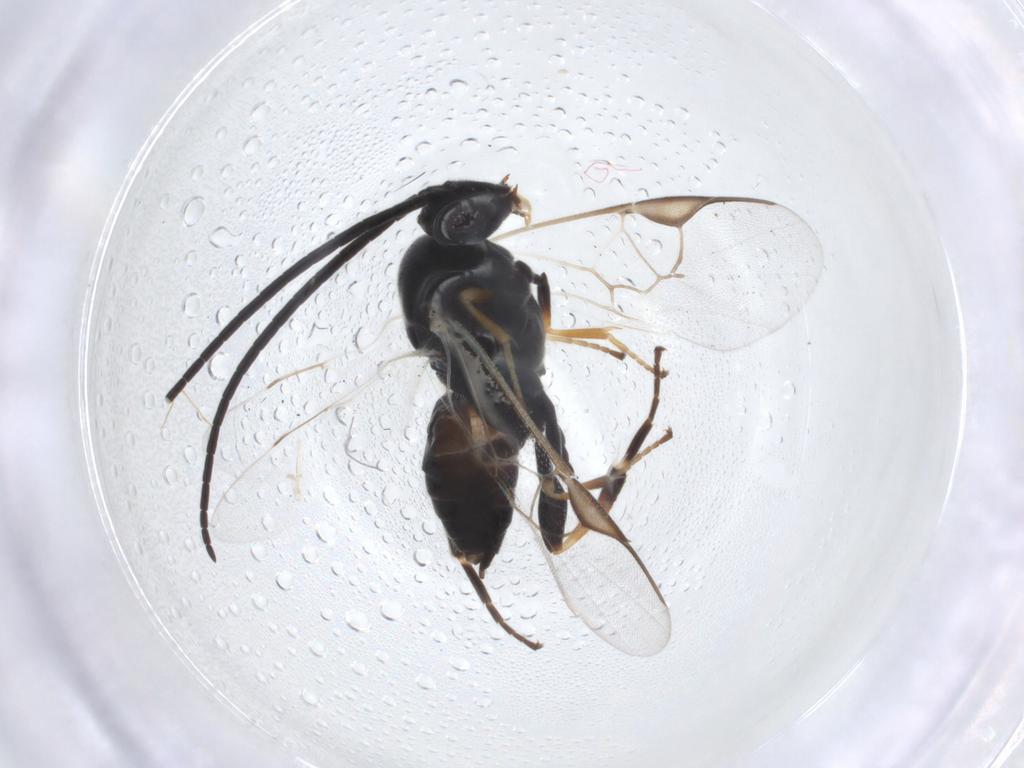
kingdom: Animalia
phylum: Arthropoda
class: Insecta
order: Hymenoptera
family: Braconidae
